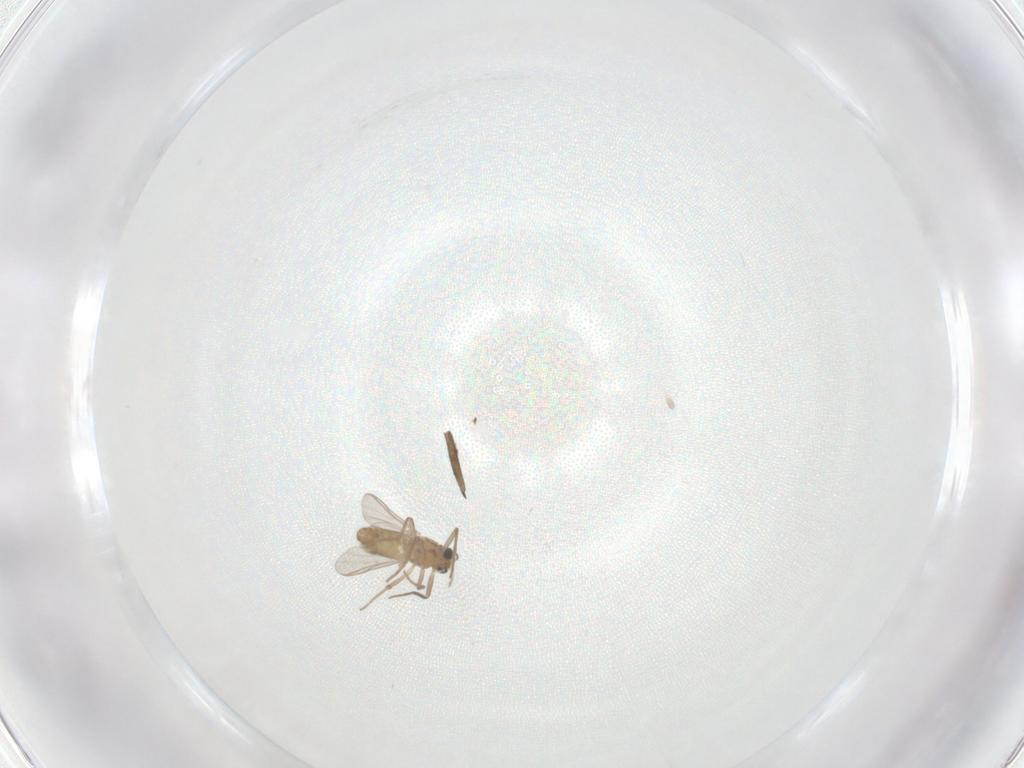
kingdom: Animalia
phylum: Arthropoda
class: Insecta
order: Diptera
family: Chironomidae
